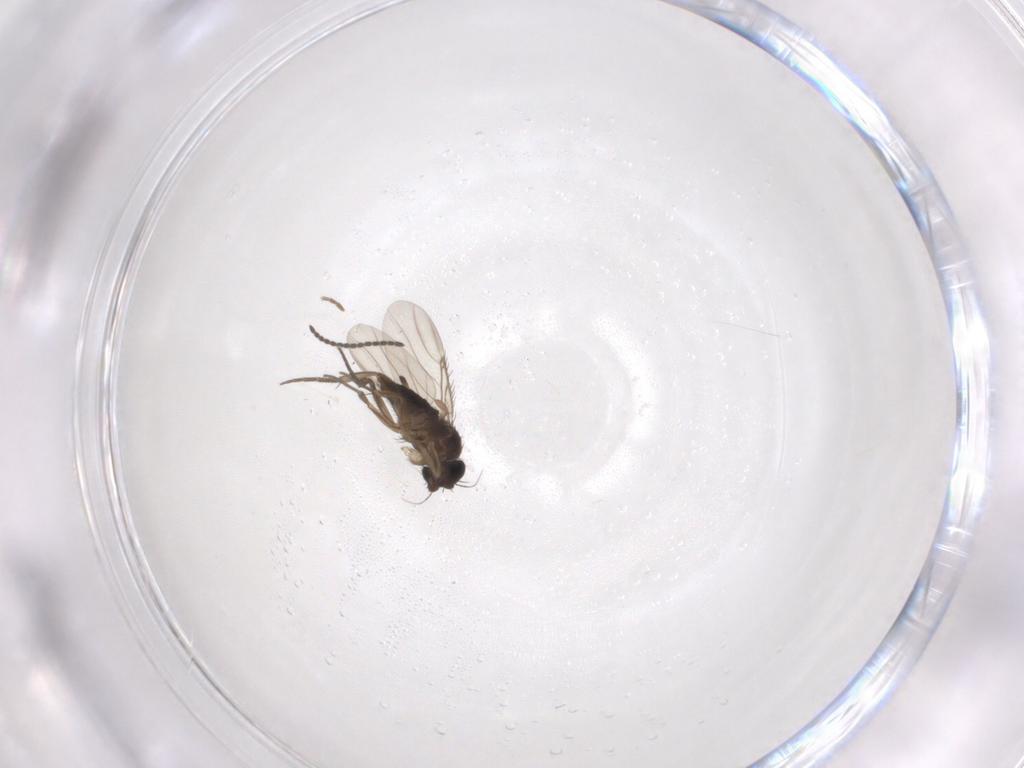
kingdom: Animalia
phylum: Arthropoda
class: Insecta
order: Diptera
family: Phoridae
